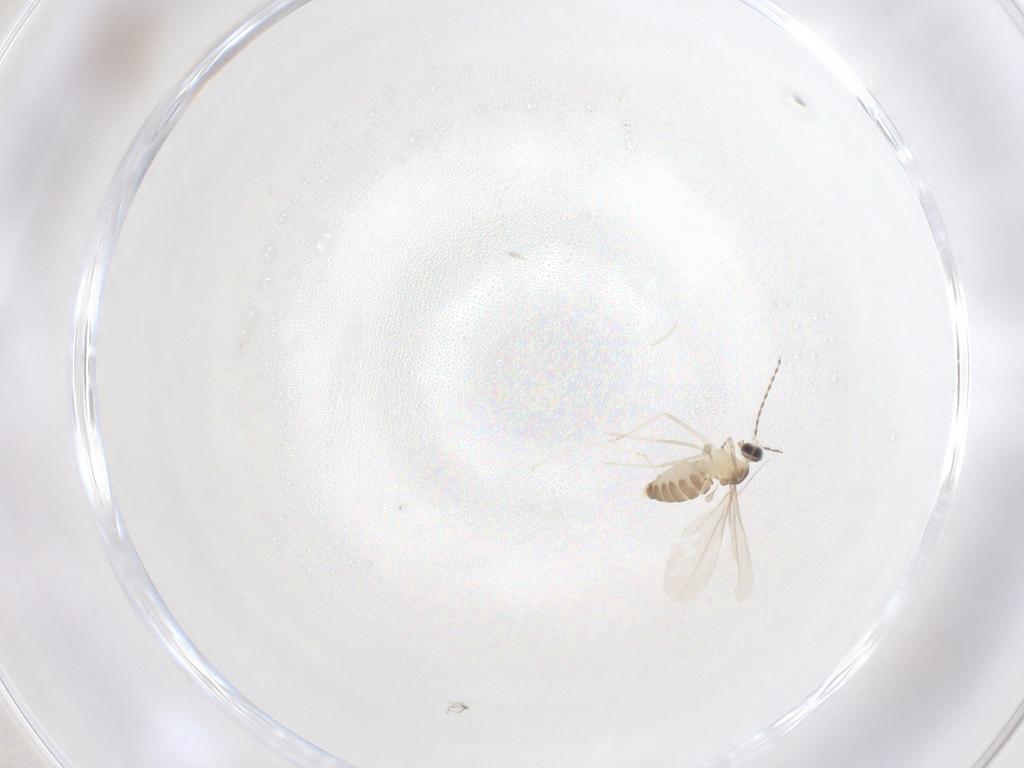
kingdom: Animalia
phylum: Arthropoda
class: Insecta
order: Diptera
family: Cecidomyiidae
